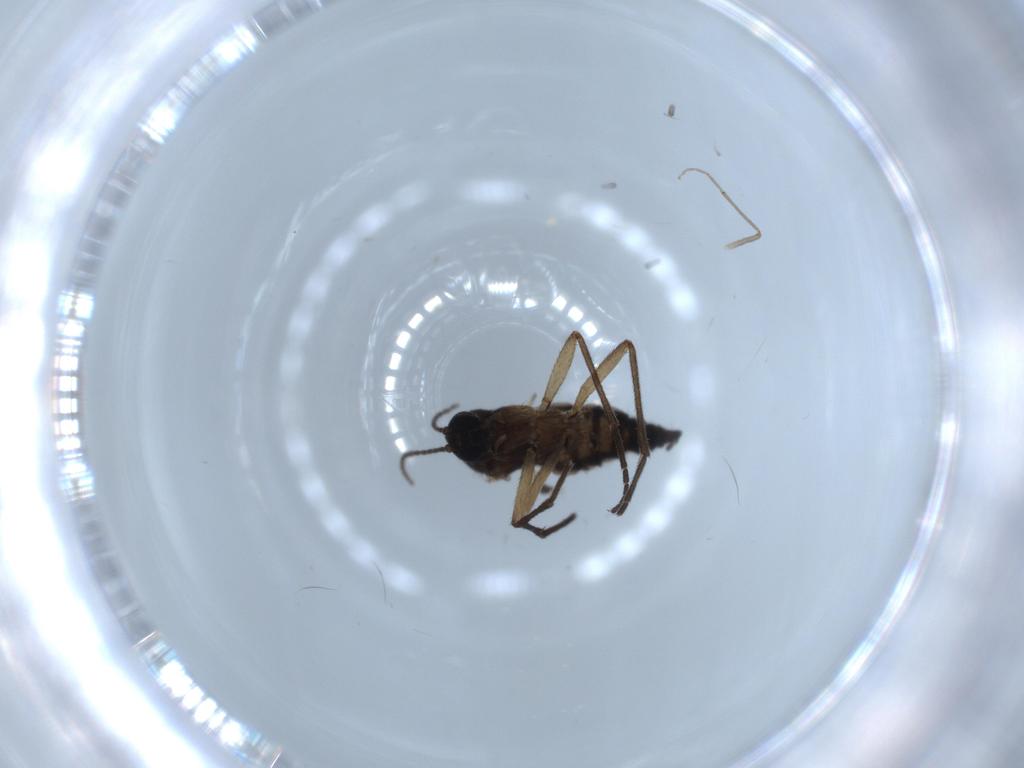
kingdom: Animalia
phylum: Arthropoda
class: Insecta
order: Diptera
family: Sciaridae
